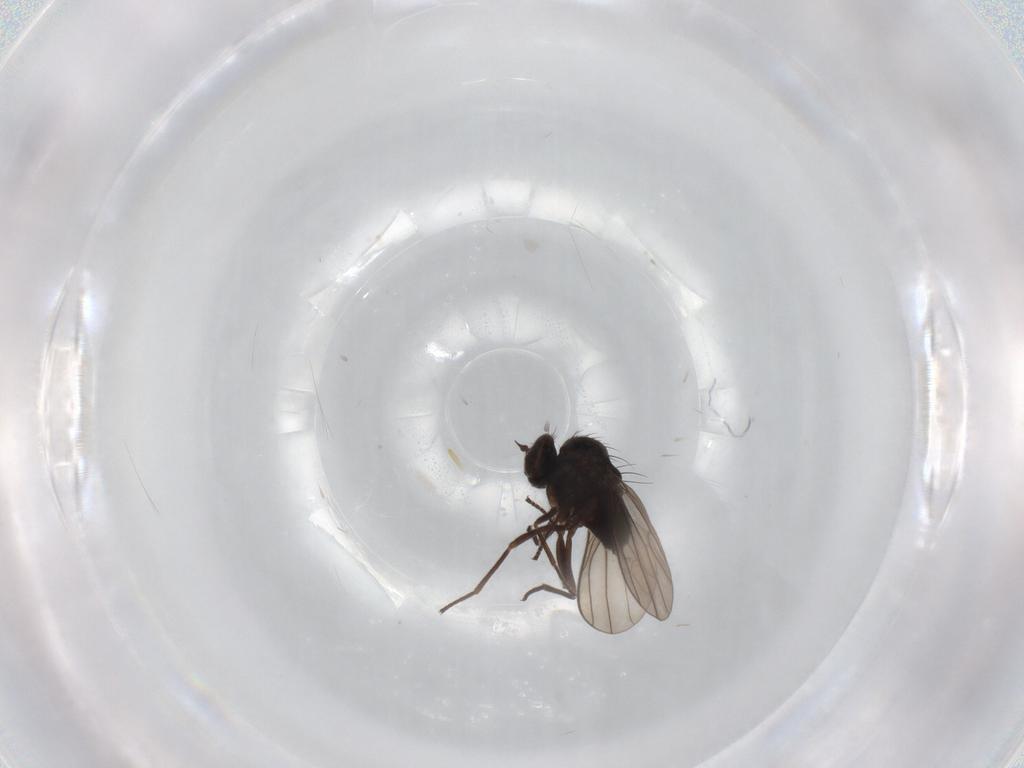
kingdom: Animalia
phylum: Arthropoda
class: Insecta
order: Diptera
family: Dolichopodidae
